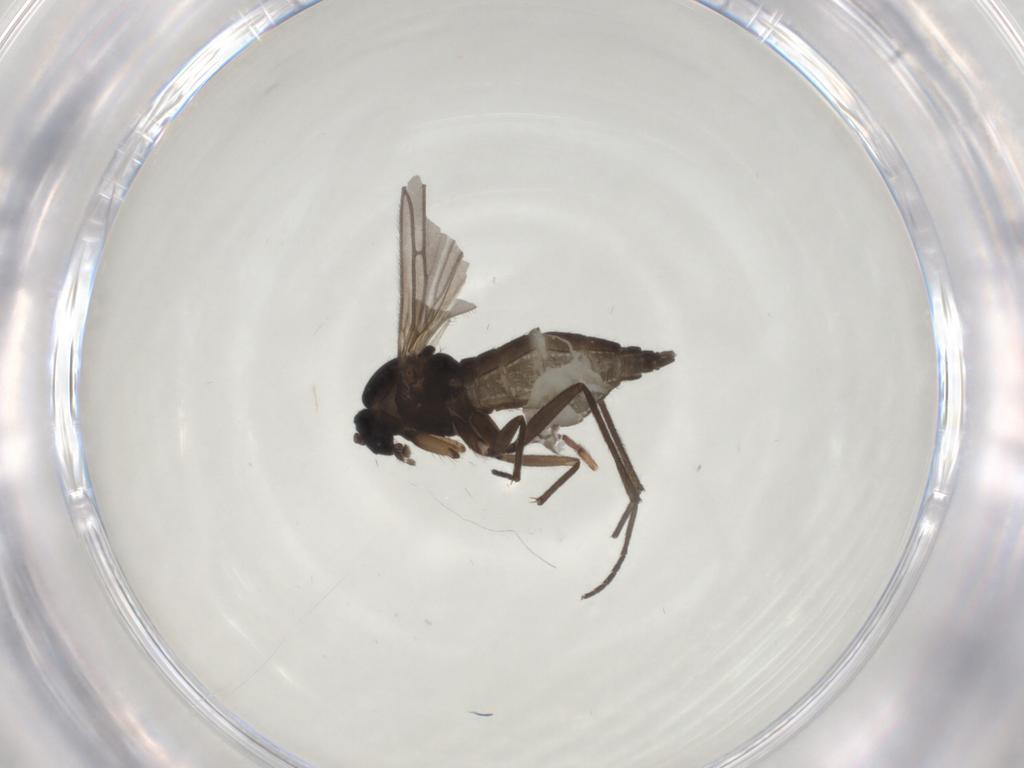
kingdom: Animalia
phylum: Arthropoda
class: Insecta
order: Diptera
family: Sciaridae
